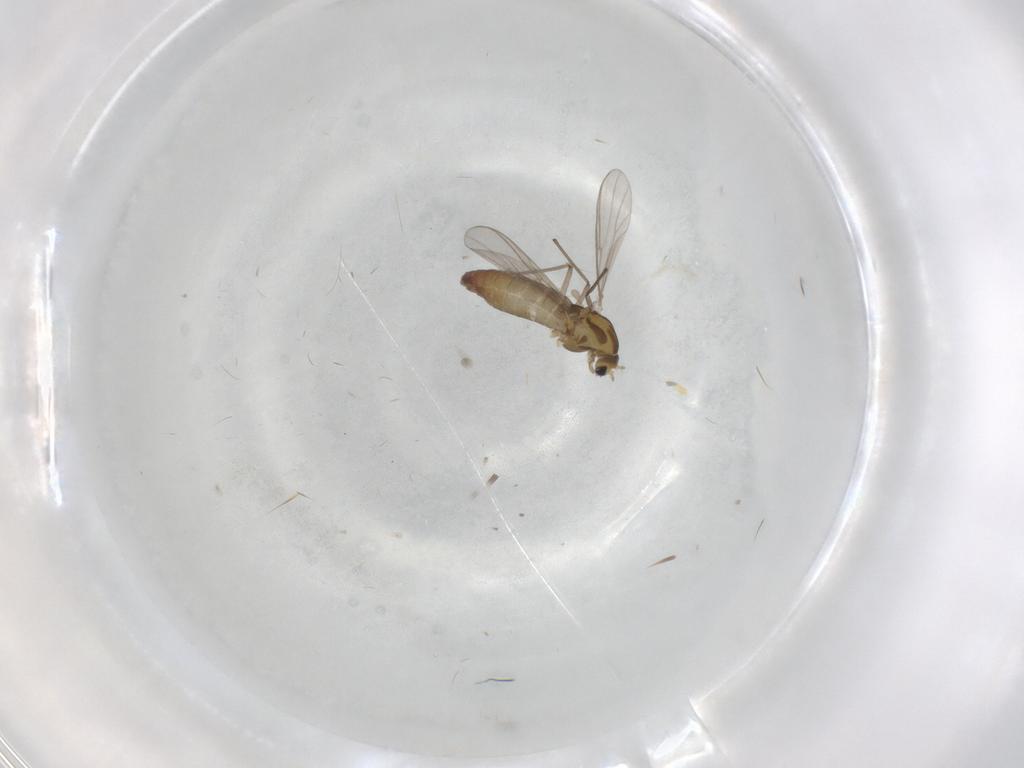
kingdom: Animalia
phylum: Arthropoda
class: Insecta
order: Diptera
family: Chironomidae
